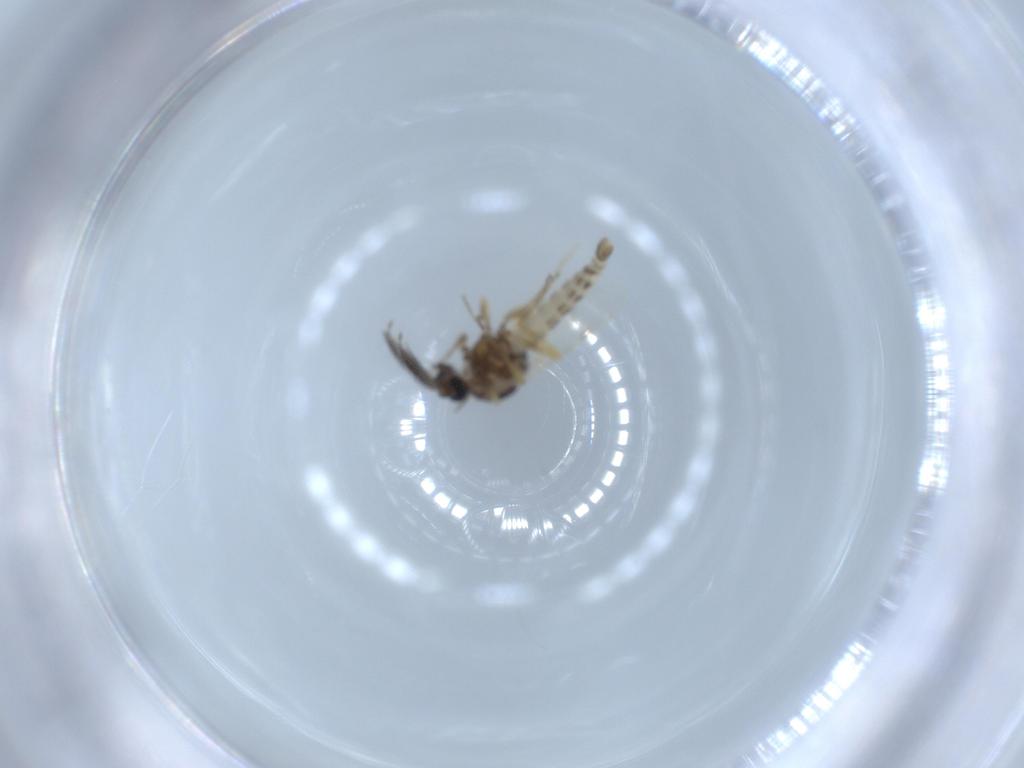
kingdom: Animalia
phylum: Arthropoda
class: Insecta
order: Diptera
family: Ceratopogonidae
